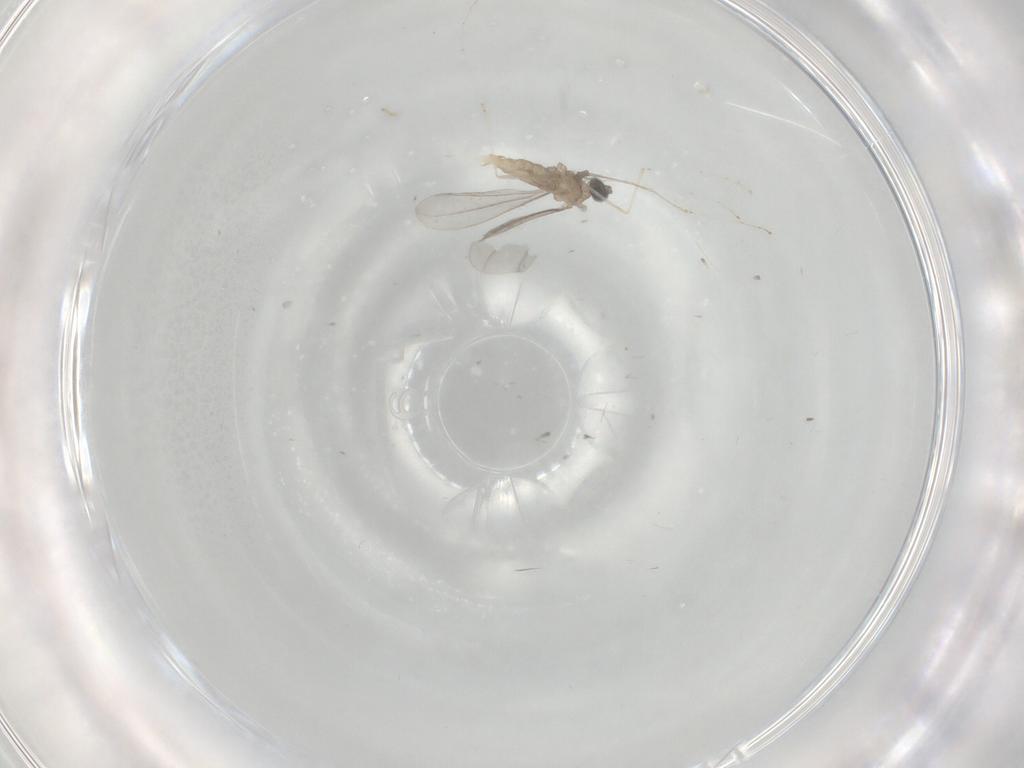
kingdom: Animalia
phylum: Arthropoda
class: Insecta
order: Diptera
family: Cecidomyiidae
